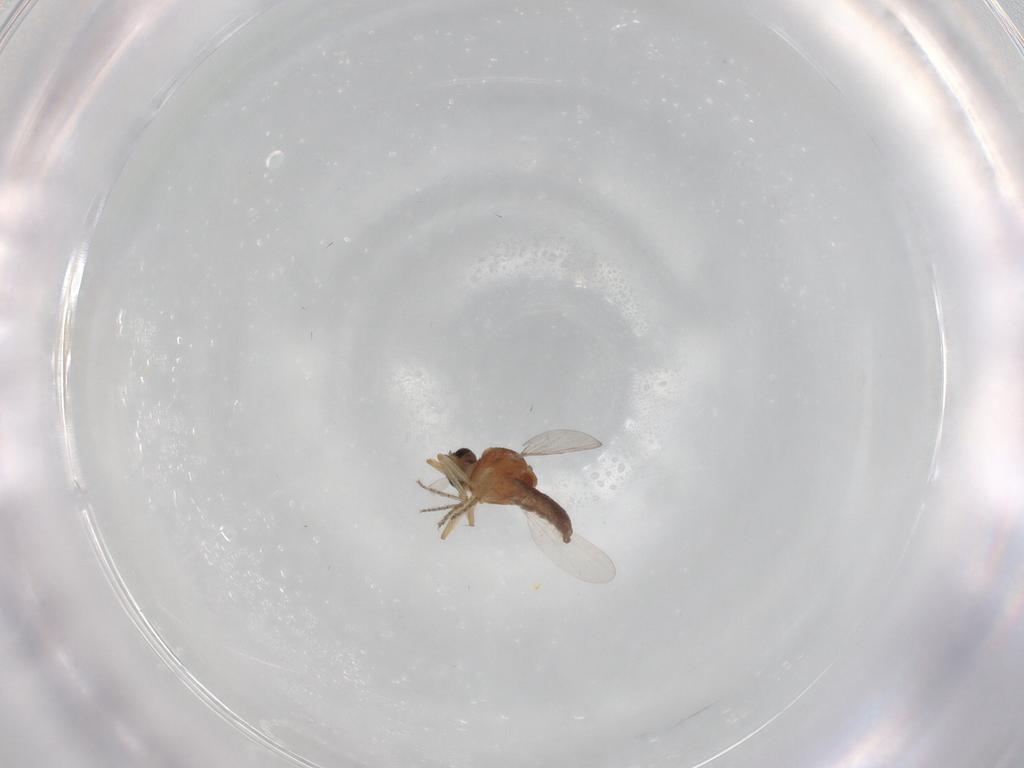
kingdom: Animalia
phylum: Arthropoda
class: Insecta
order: Diptera
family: Ceratopogonidae
